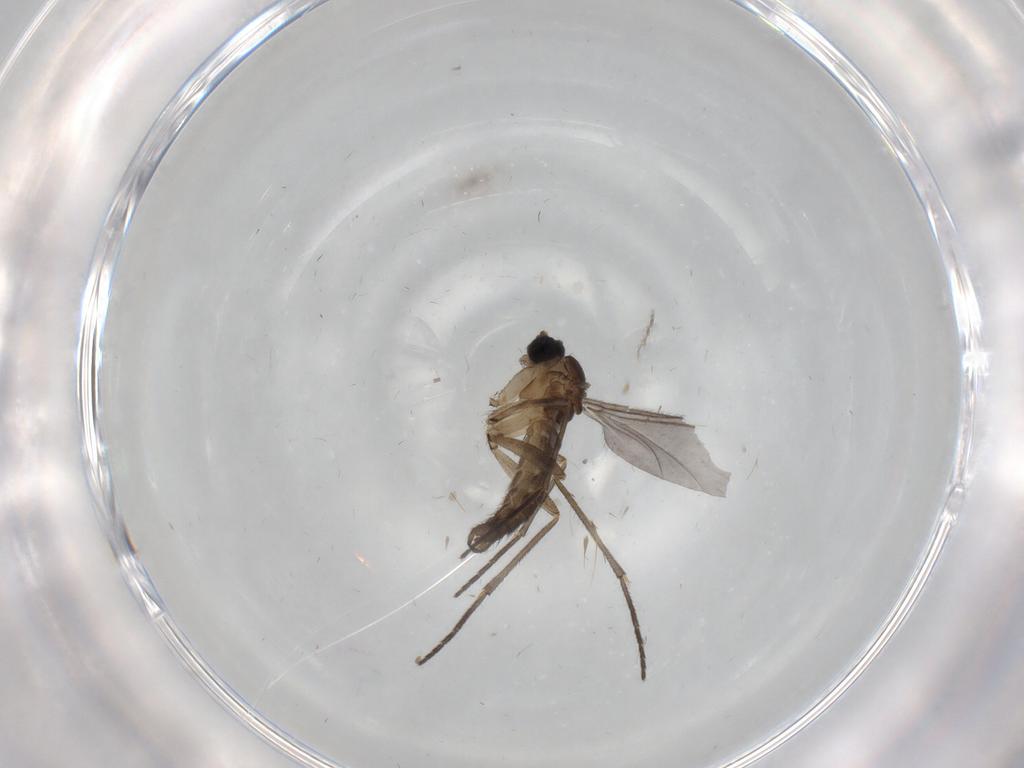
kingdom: Animalia
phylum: Arthropoda
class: Insecta
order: Diptera
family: Sciaridae
